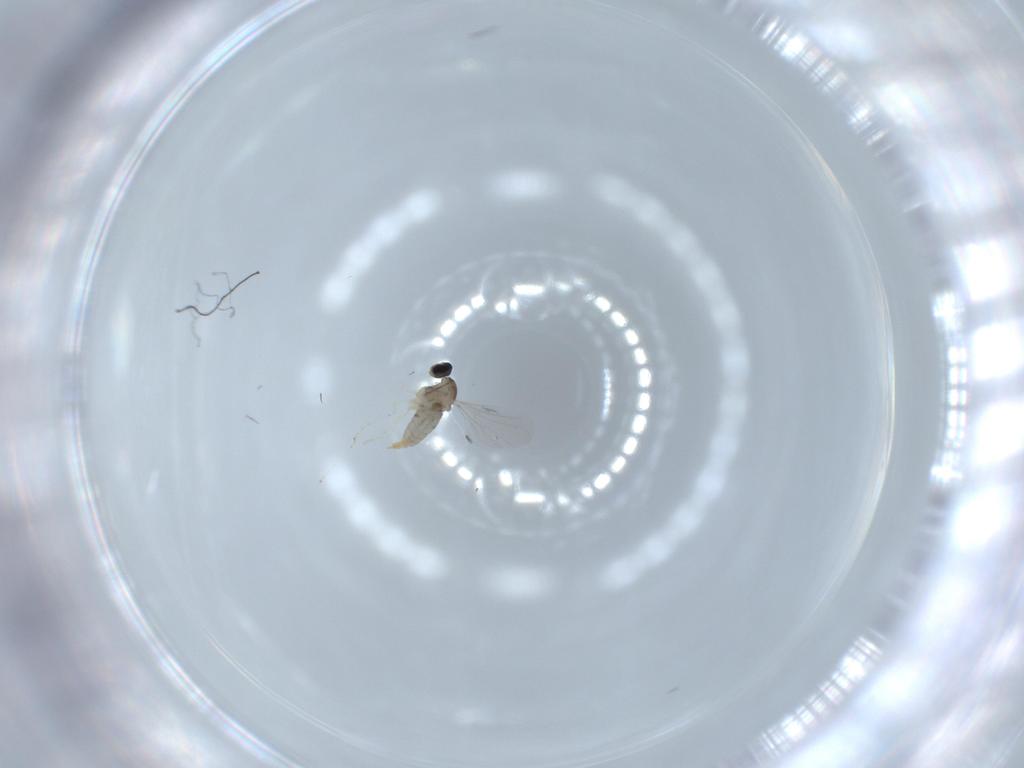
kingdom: Animalia
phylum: Arthropoda
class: Insecta
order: Diptera
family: Cecidomyiidae
